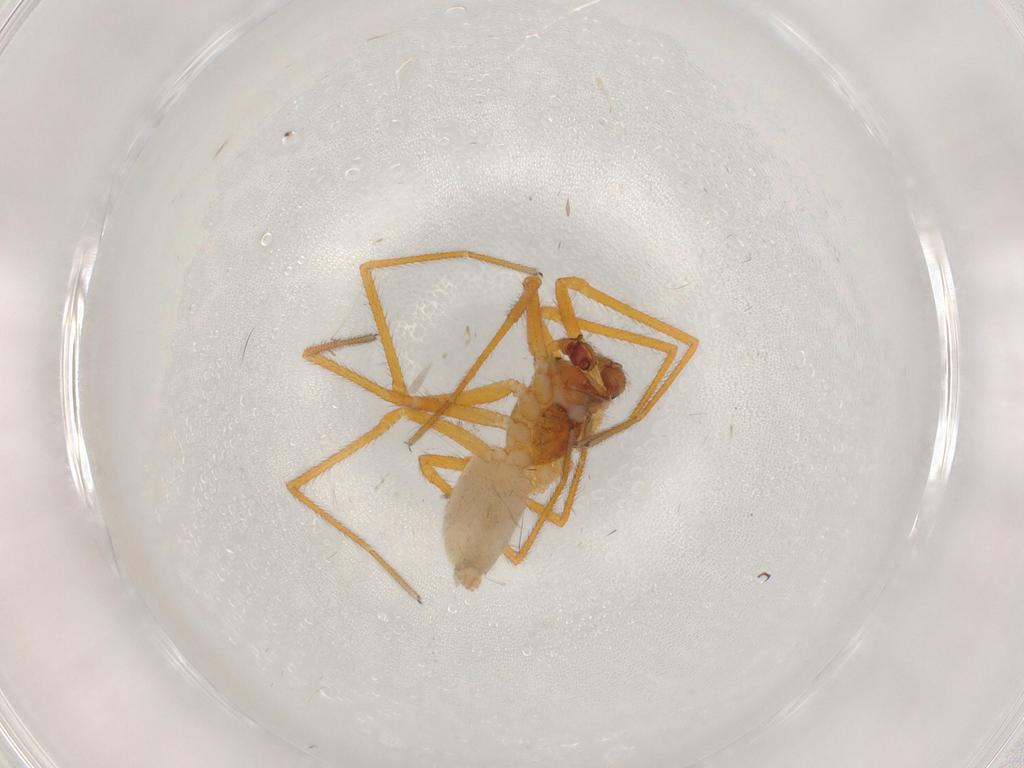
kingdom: Animalia
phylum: Arthropoda
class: Arachnida
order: Araneae
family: Linyphiidae
